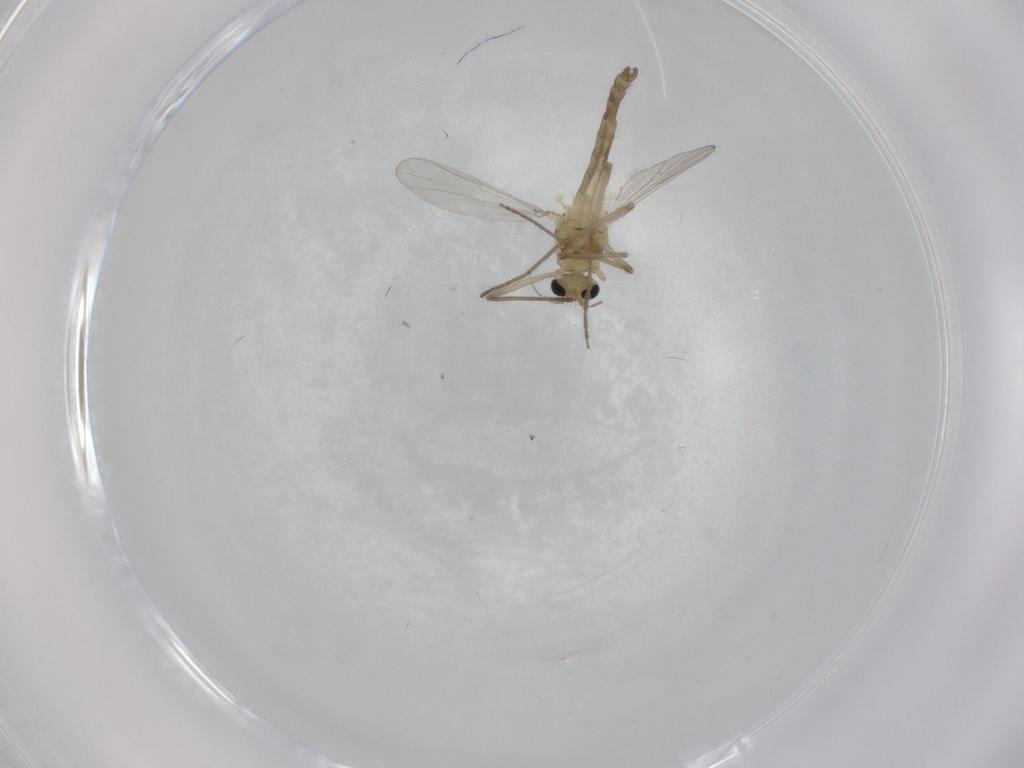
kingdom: Animalia
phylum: Arthropoda
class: Insecta
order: Diptera
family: Chironomidae
